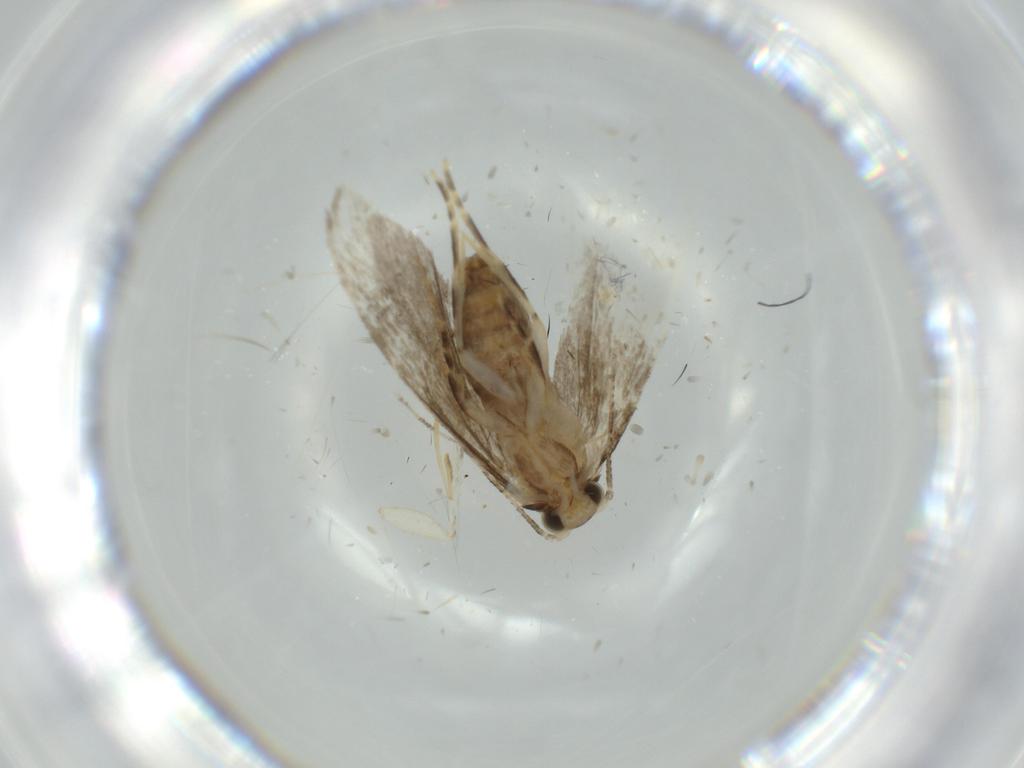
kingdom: Animalia
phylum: Arthropoda
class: Insecta
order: Lepidoptera
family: Tineidae
